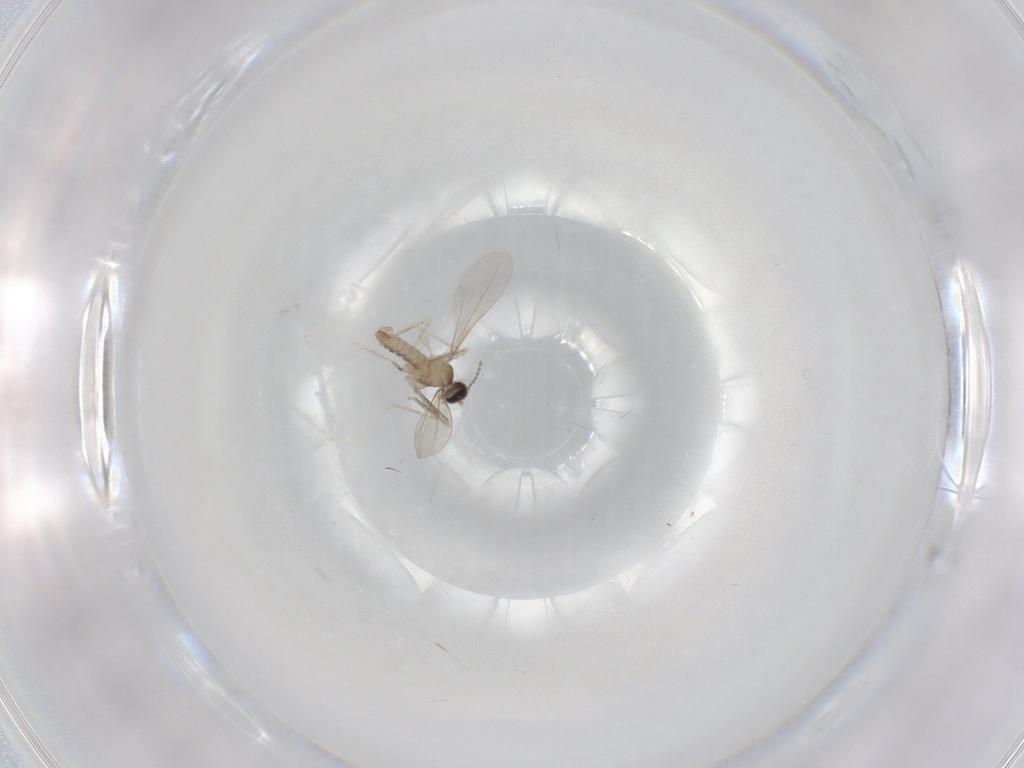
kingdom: Animalia
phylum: Arthropoda
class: Insecta
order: Diptera
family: Cecidomyiidae
